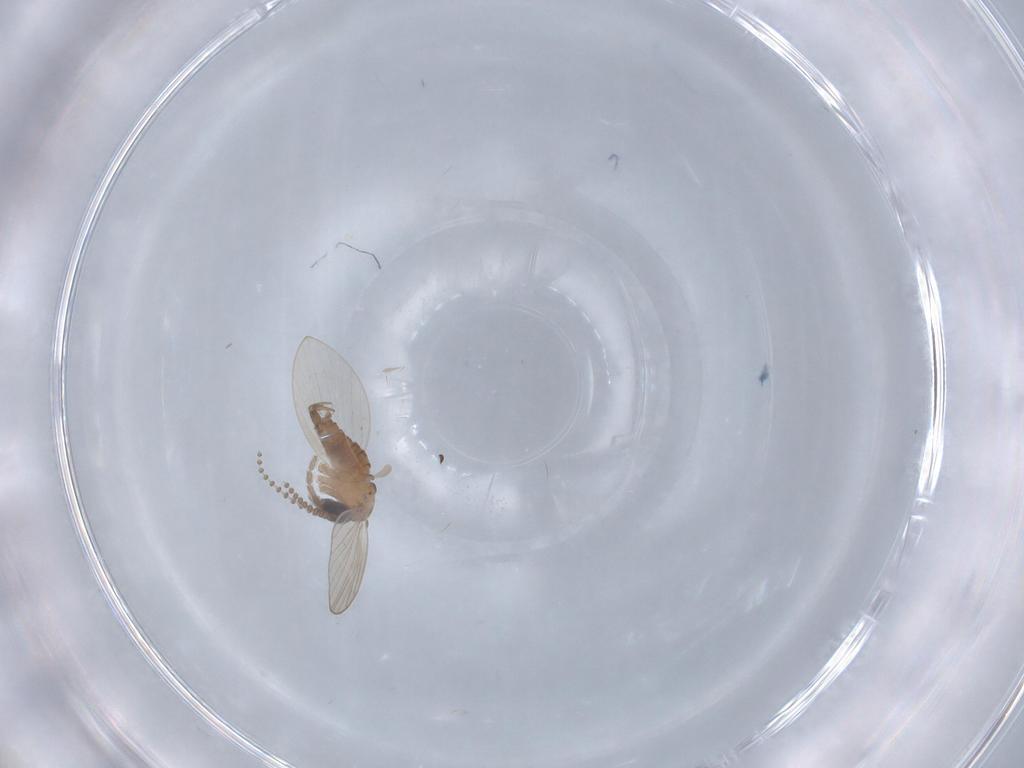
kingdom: Animalia
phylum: Arthropoda
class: Insecta
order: Diptera
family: Psychodidae
